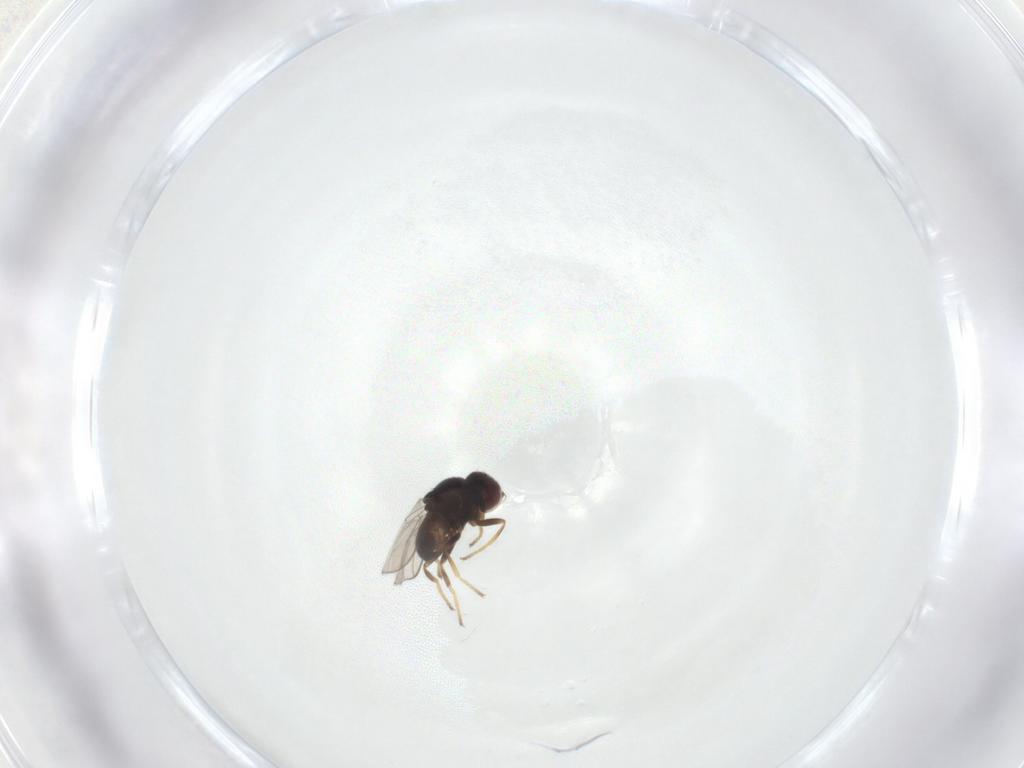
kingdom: Animalia
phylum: Arthropoda
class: Insecta
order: Diptera
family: Chloropidae
